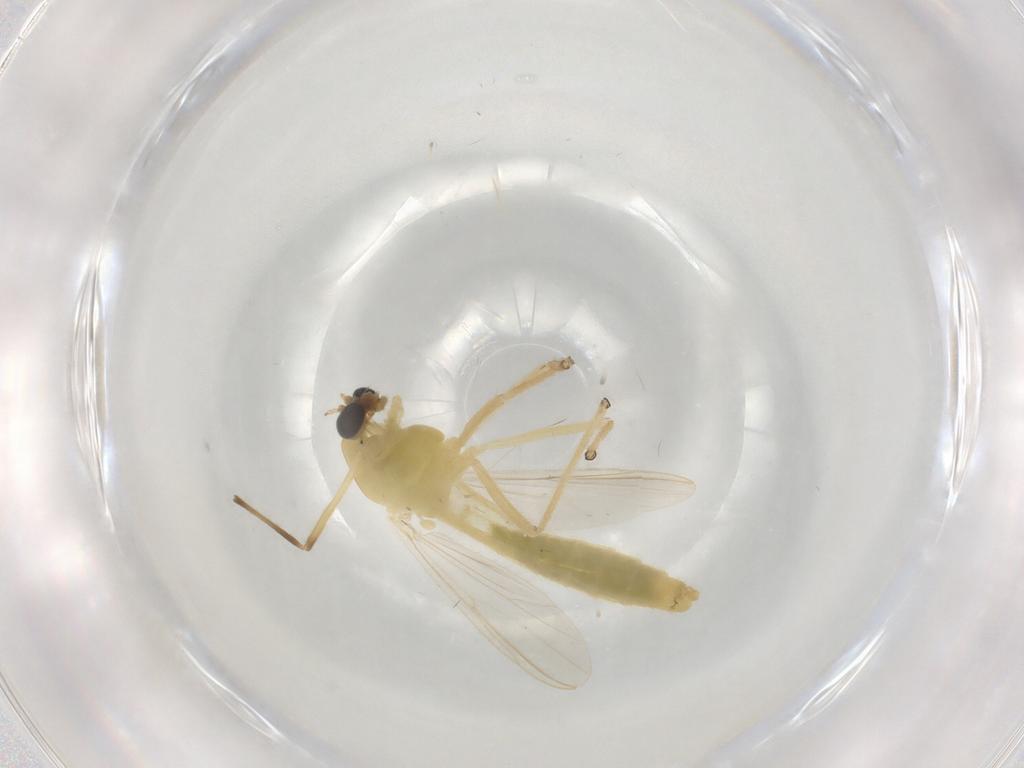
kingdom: Animalia
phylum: Arthropoda
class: Insecta
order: Diptera
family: Chironomidae
